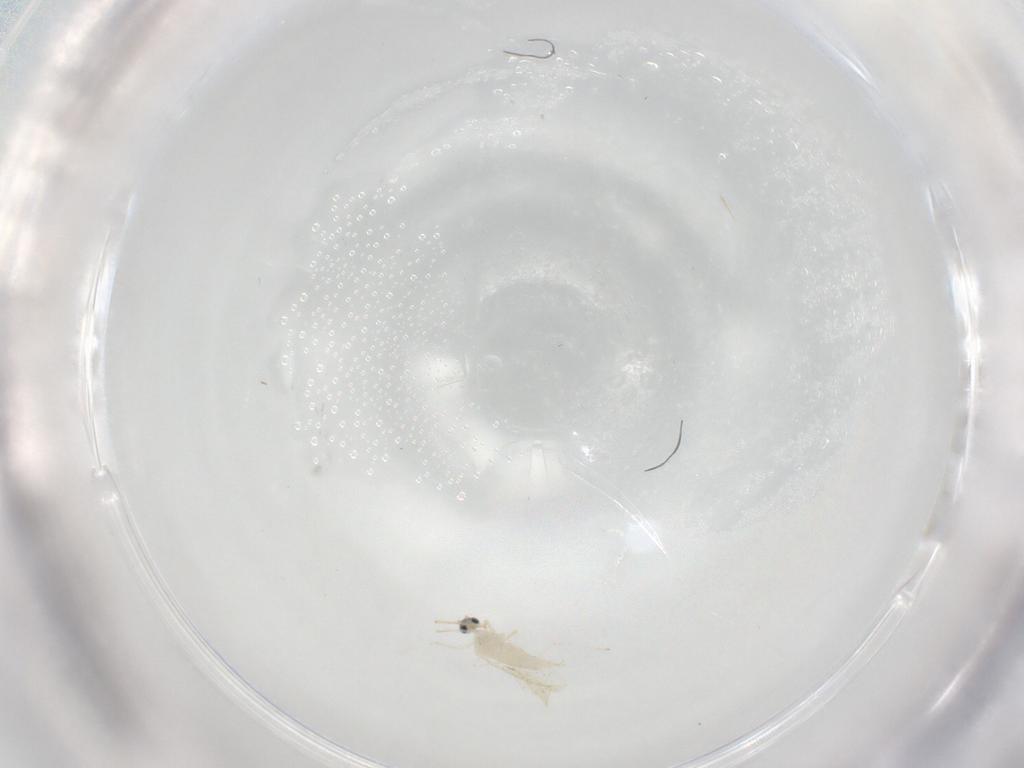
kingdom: Animalia
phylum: Arthropoda
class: Insecta
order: Diptera
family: Cecidomyiidae
